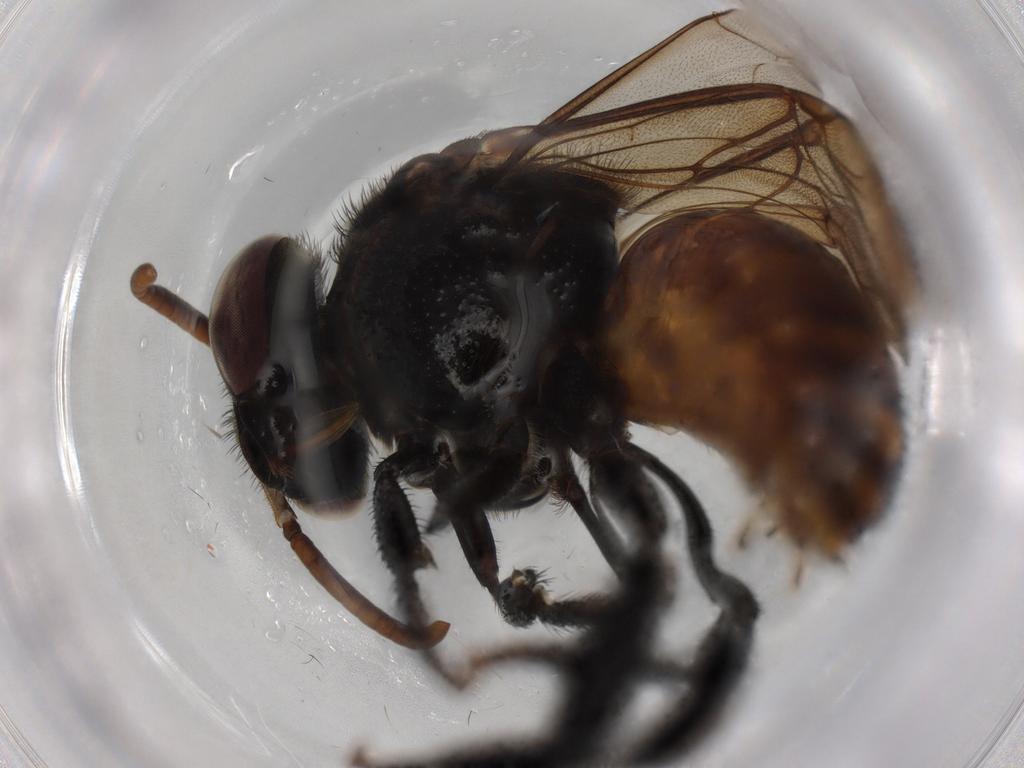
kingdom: Animalia
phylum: Arthropoda
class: Insecta
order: Hymenoptera
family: Apidae
